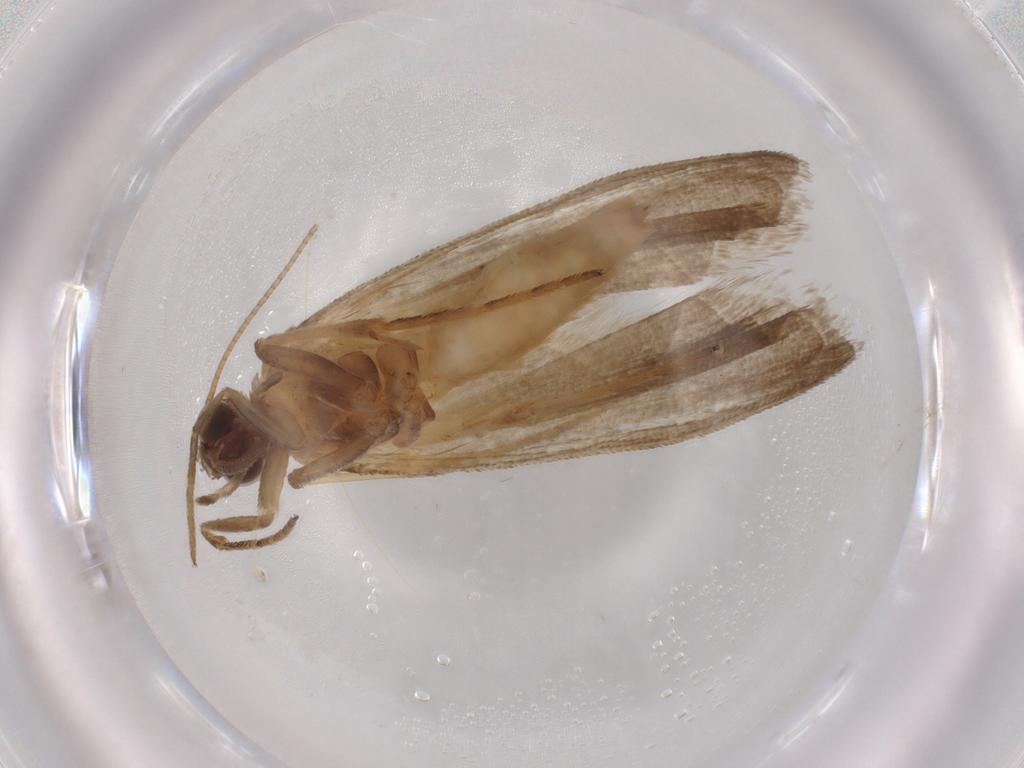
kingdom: Animalia
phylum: Arthropoda
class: Insecta
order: Lepidoptera
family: Noctuidae
